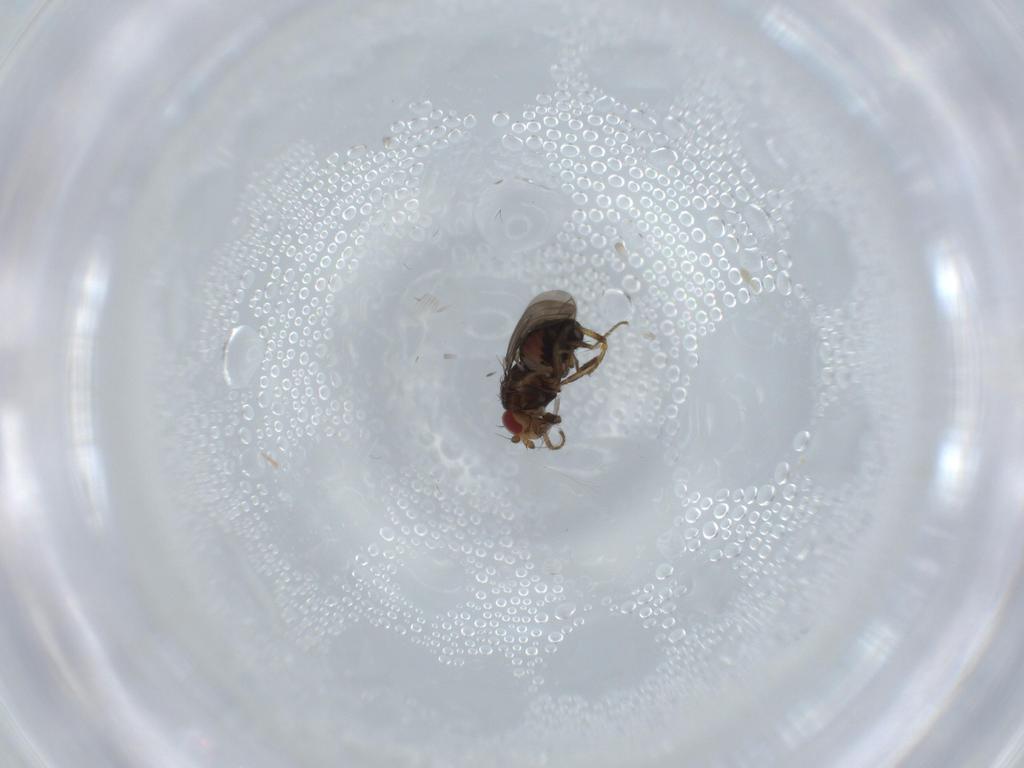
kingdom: Animalia
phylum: Arthropoda
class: Insecta
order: Diptera
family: Sphaeroceridae
